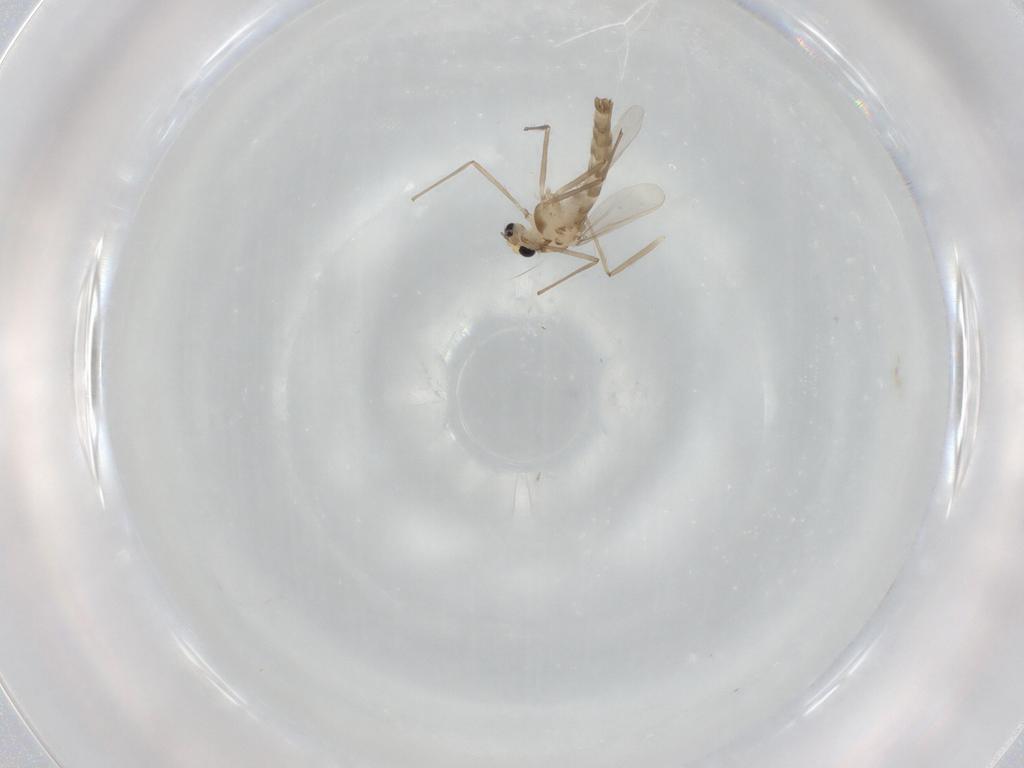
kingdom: Animalia
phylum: Arthropoda
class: Insecta
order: Diptera
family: Chironomidae
